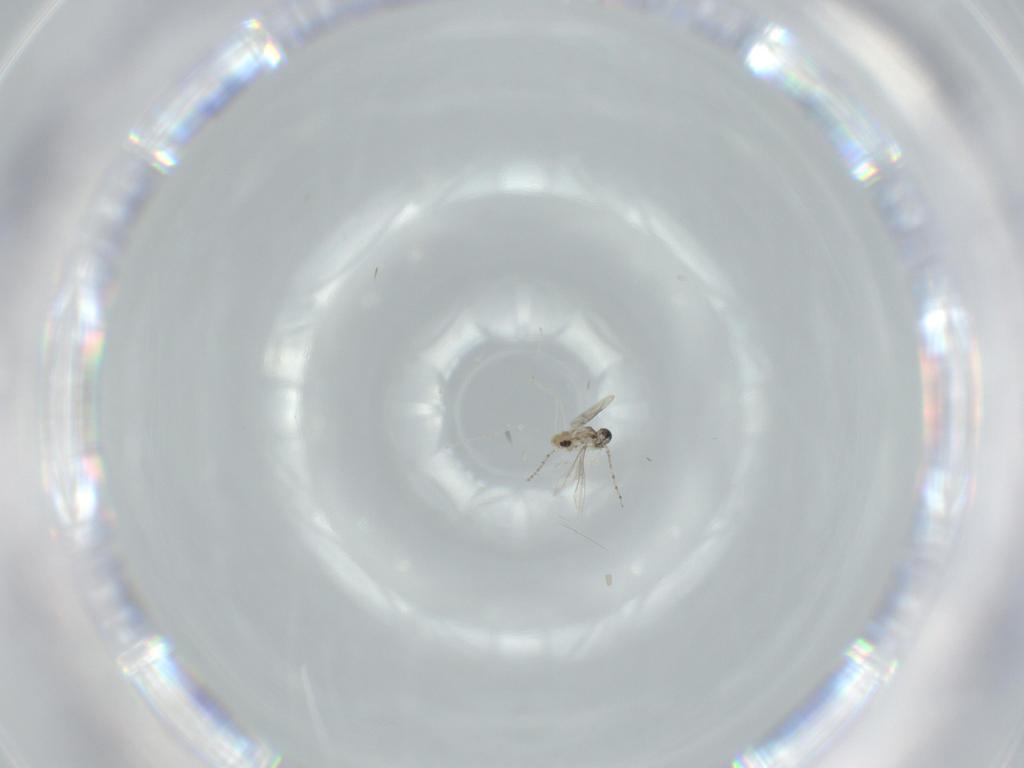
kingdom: Animalia
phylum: Arthropoda
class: Insecta
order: Diptera
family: Cecidomyiidae
